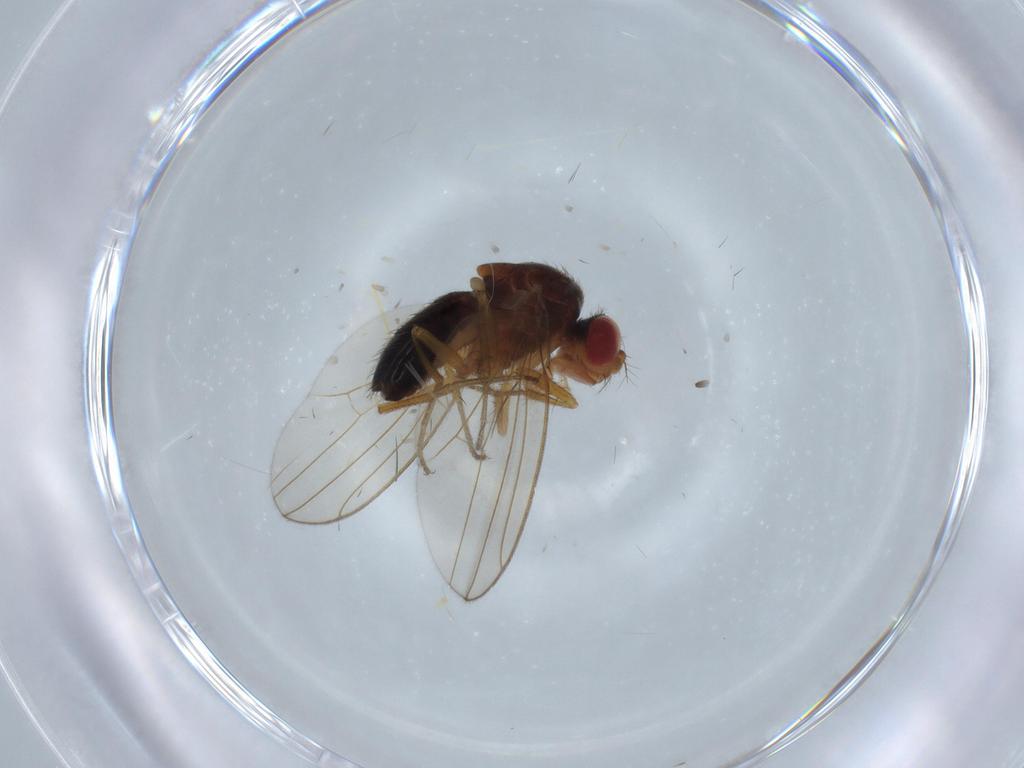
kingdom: Animalia
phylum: Arthropoda
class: Insecta
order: Diptera
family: Drosophilidae
